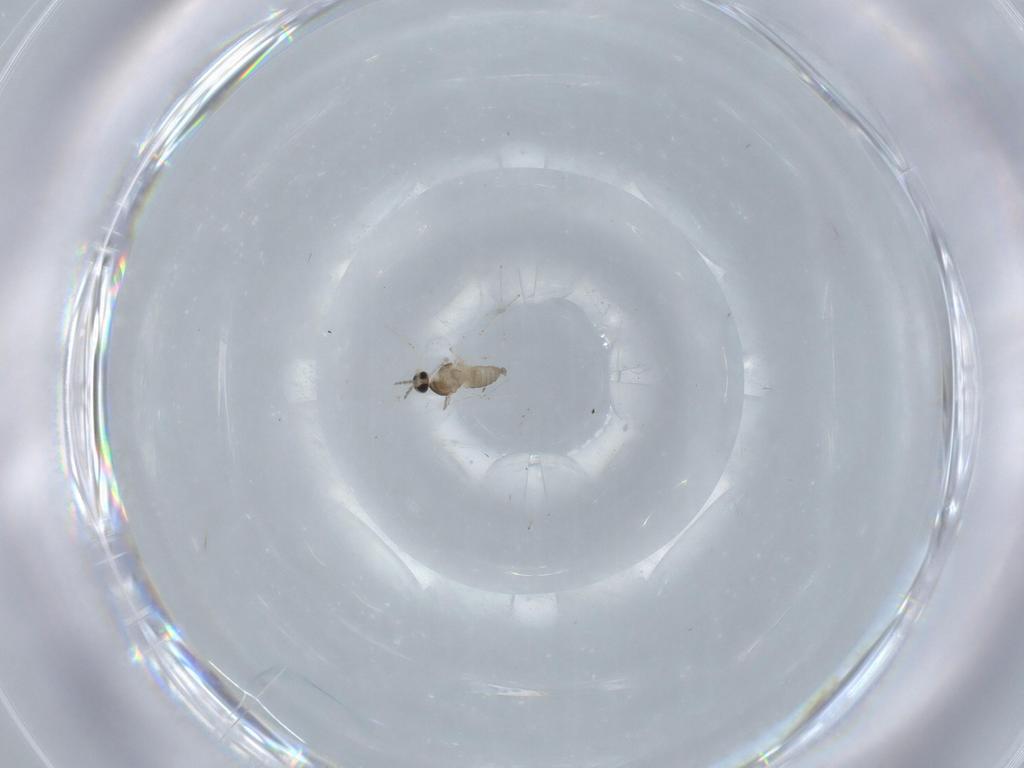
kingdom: Animalia
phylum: Arthropoda
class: Insecta
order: Diptera
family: Cecidomyiidae
